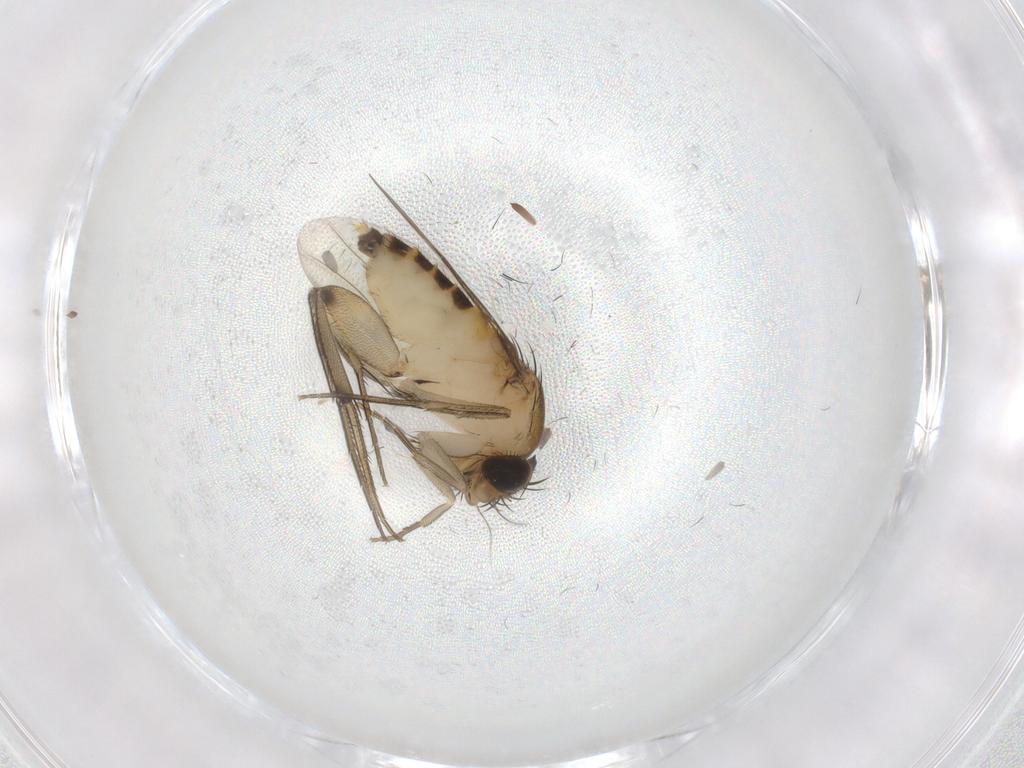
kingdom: Animalia
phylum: Arthropoda
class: Insecta
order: Diptera
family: Phoridae
